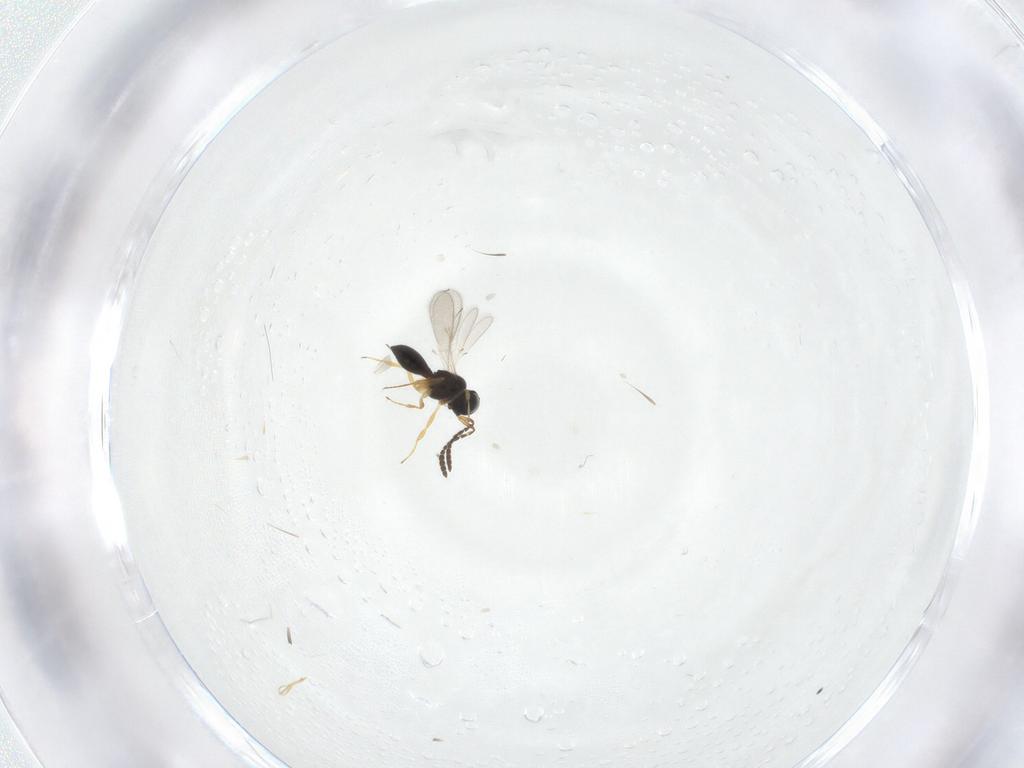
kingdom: Animalia
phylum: Arthropoda
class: Insecta
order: Hymenoptera
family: Scelionidae
